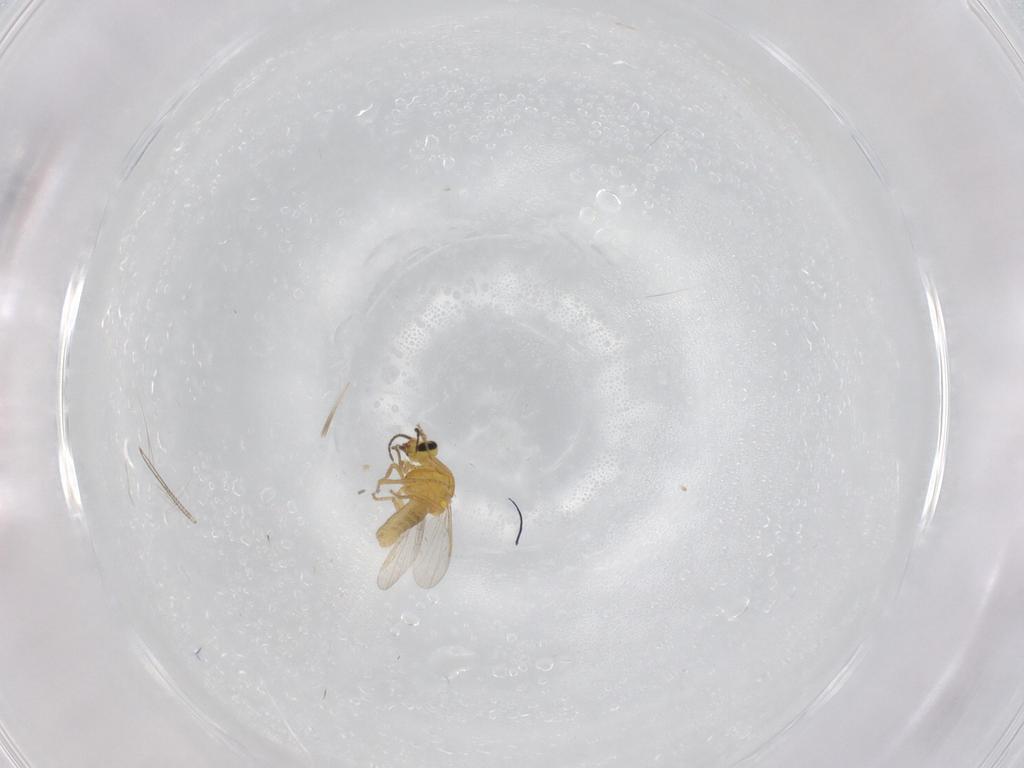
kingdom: Animalia
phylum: Arthropoda
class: Insecta
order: Diptera
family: Chironomidae
